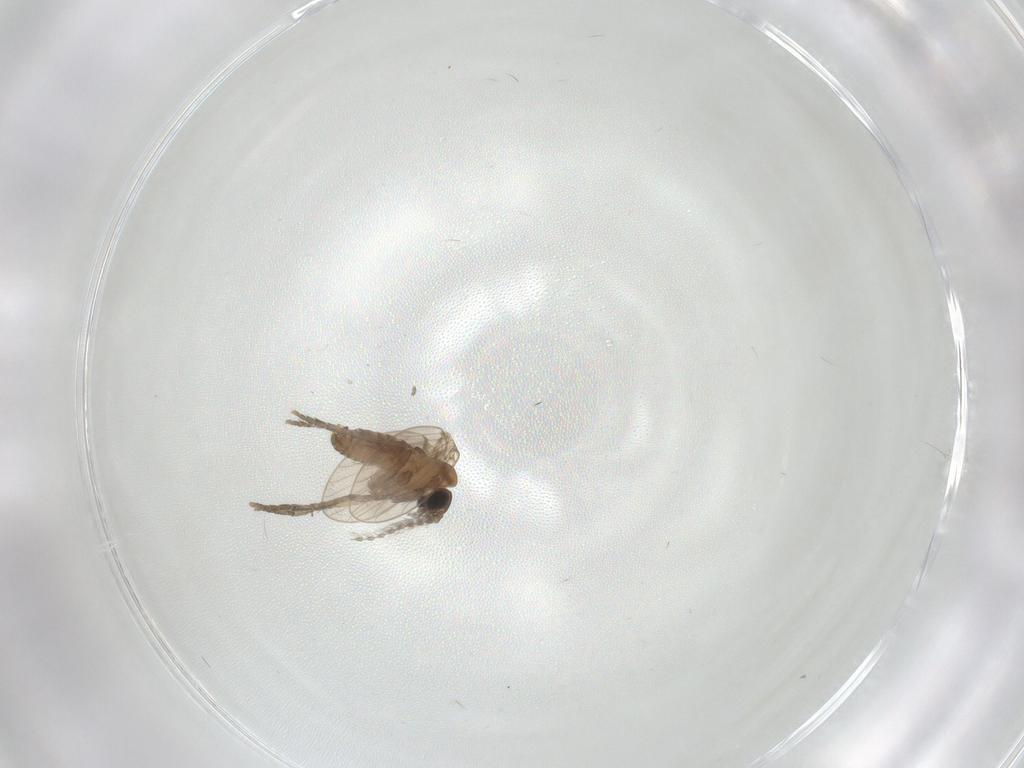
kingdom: Animalia
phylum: Arthropoda
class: Insecta
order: Diptera
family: Psychodidae
